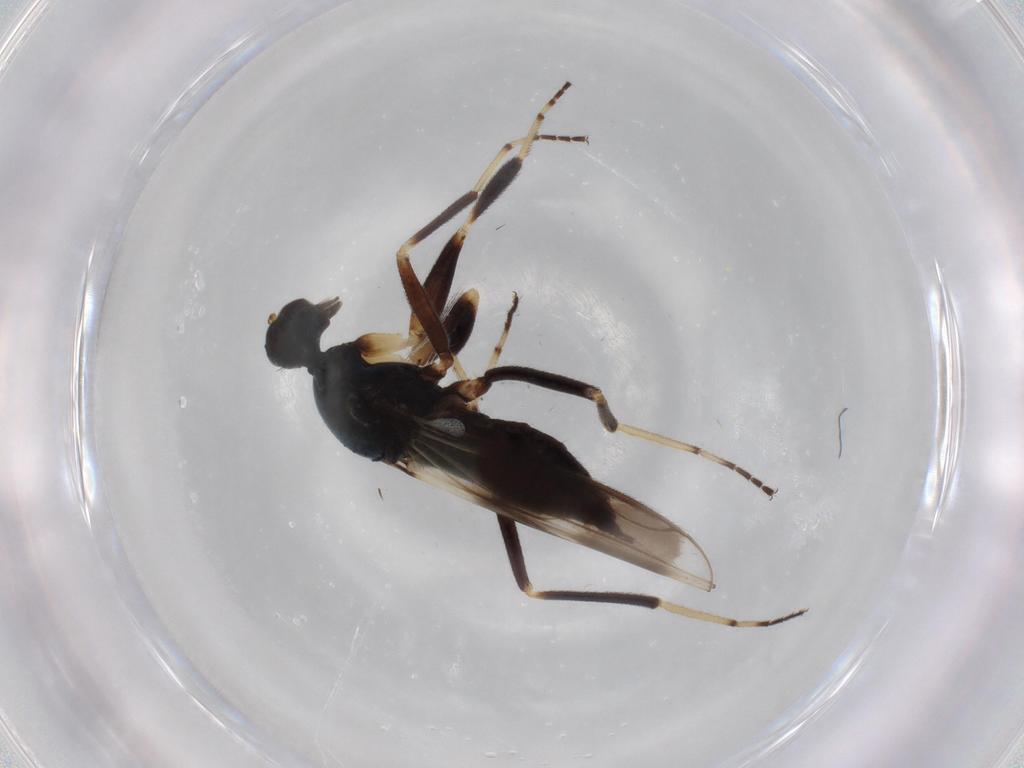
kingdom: Animalia
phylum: Arthropoda
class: Insecta
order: Diptera
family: Hybotidae
